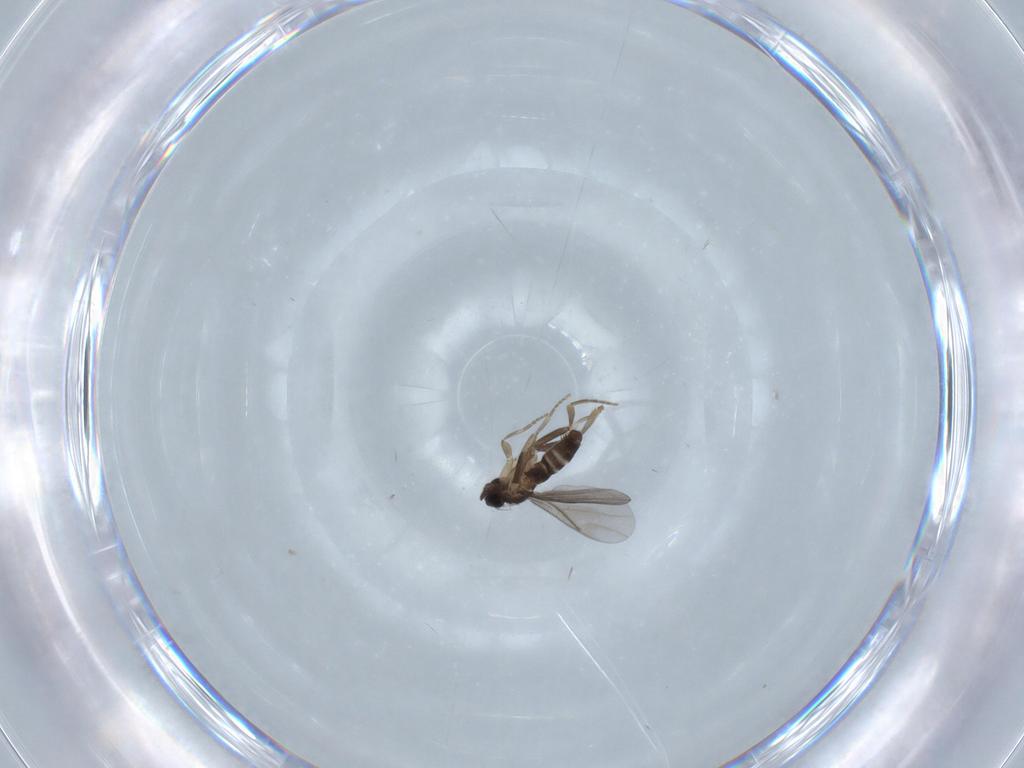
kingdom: Animalia
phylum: Arthropoda
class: Insecta
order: Diptera
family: Dolichopodidae
